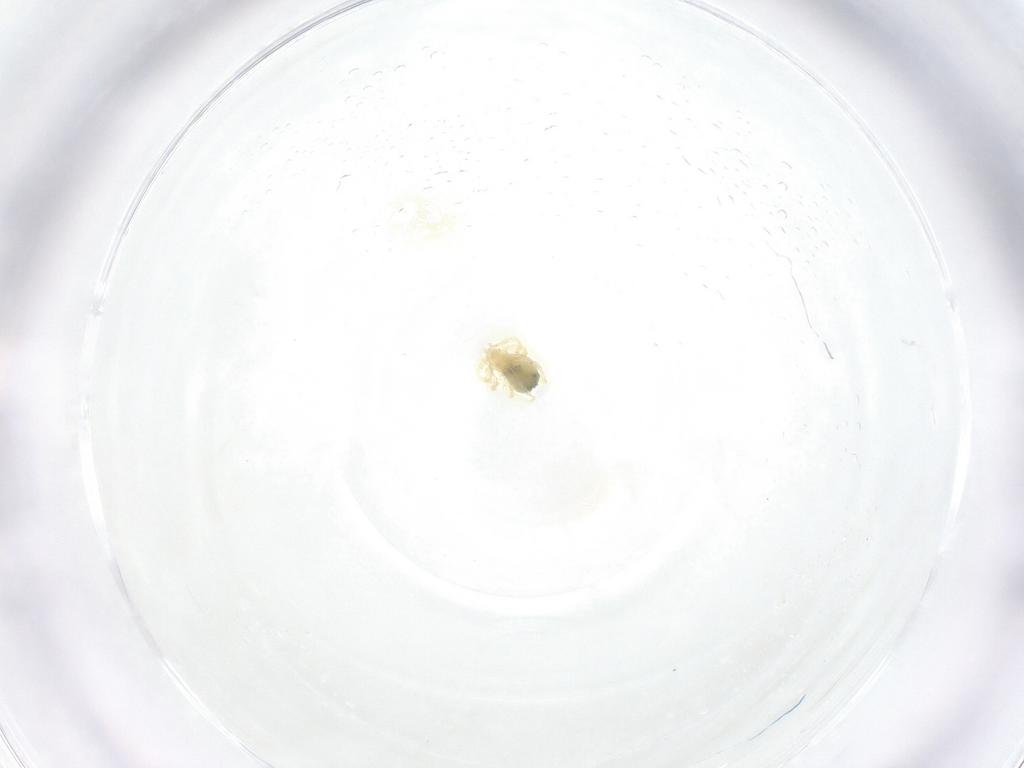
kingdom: Animalia
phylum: Arthropoda
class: Arachnida
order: Trombidiformes
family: Anystidae
